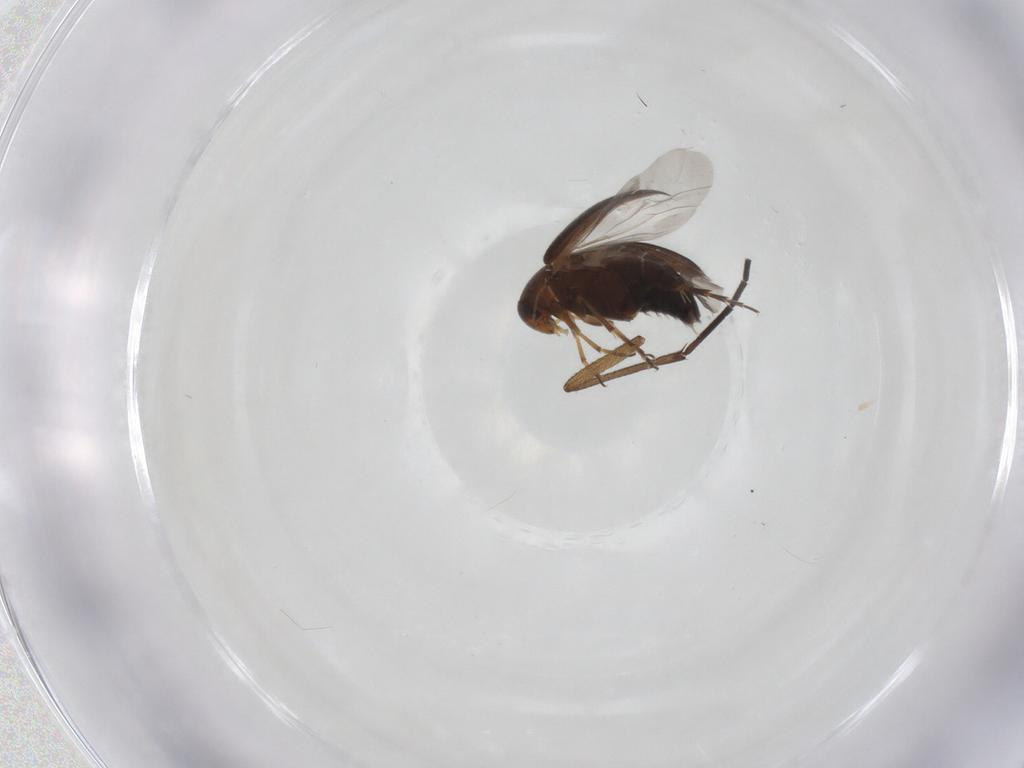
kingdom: Animalia
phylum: Arthropoda
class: Insecta
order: Coleoptera
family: Scraptiidae
